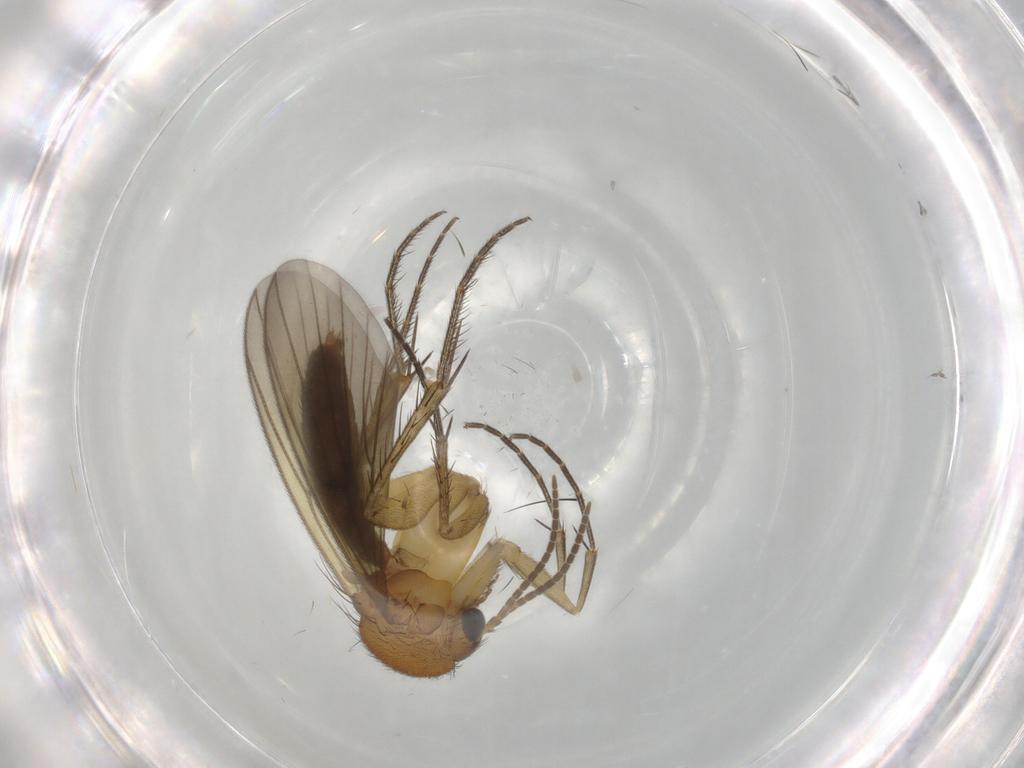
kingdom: Animalia
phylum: Arthropoda
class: Insecta
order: Diptera
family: Mycetophilidae
